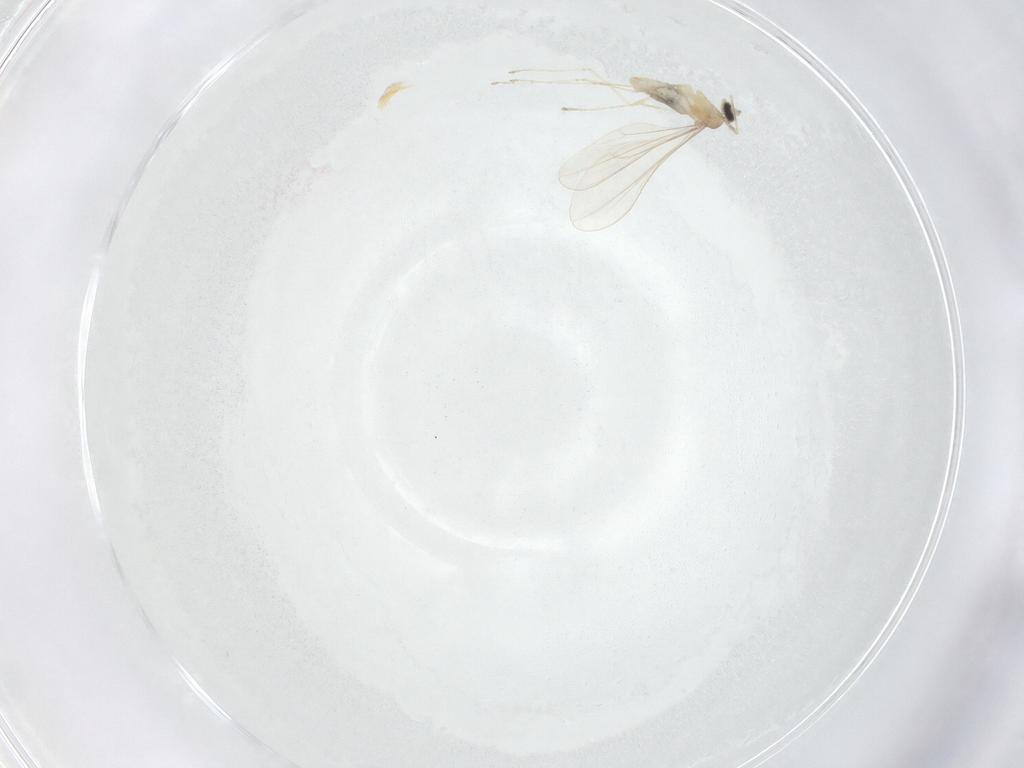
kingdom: Animalia
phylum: Arthropoda
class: Insecta
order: Diptera
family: Cecidomyiidae
